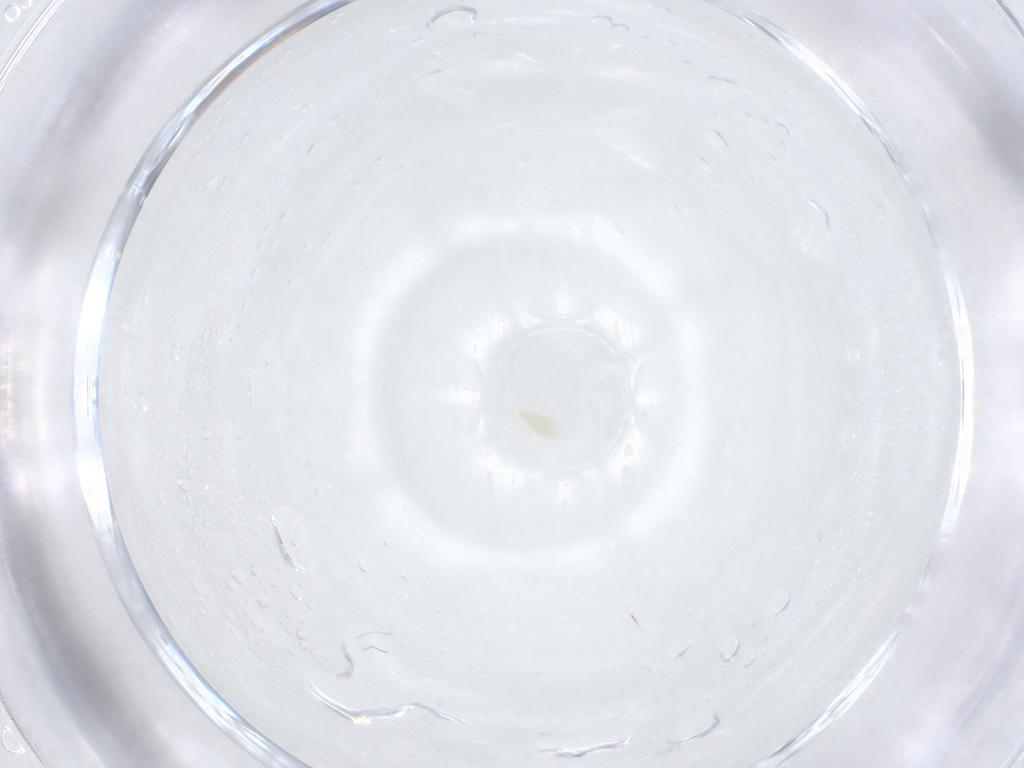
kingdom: Animalia
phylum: Arthropoda
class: Arachnida
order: Mesostigmata
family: Phytoseiidae
